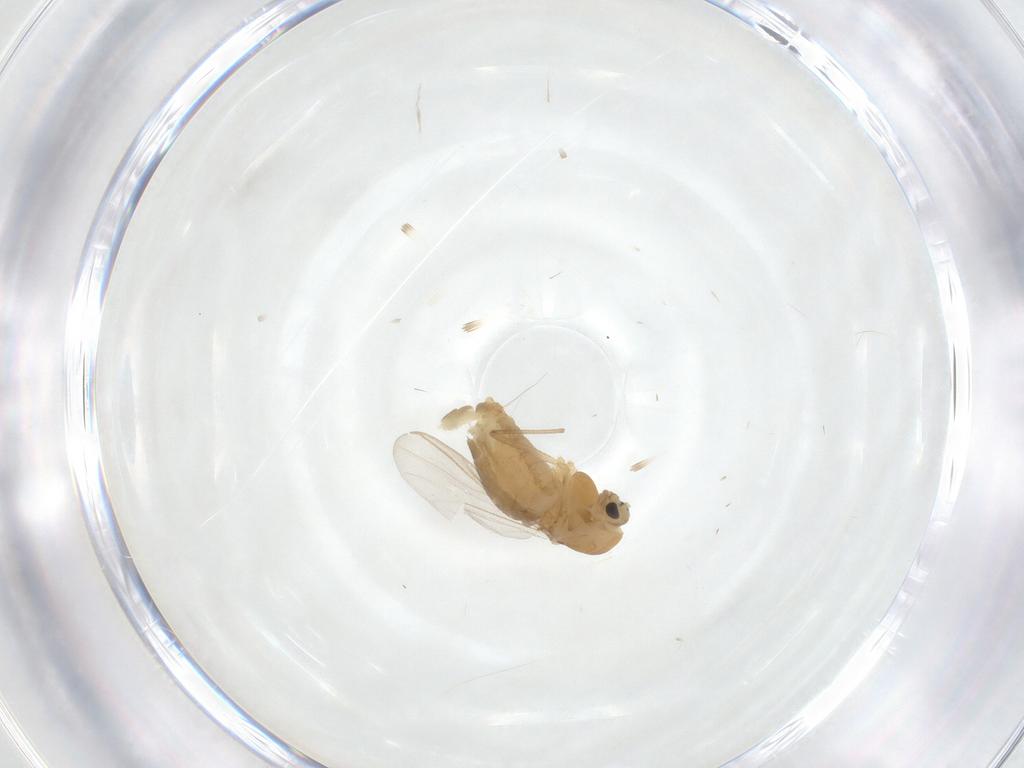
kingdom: Animalia
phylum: Arthropoda
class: Insecta
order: Diptera
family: Chironomidae
